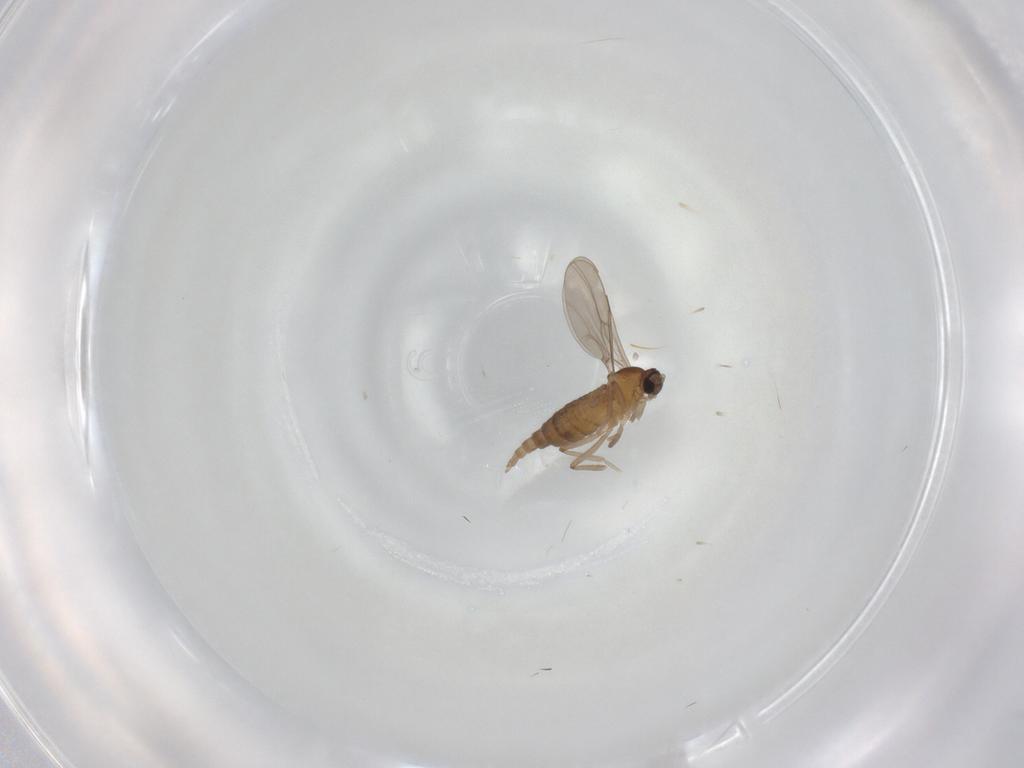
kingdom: Animalia
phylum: Arthropoda
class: Insecta
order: Diptera
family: Cecidomyiidae
